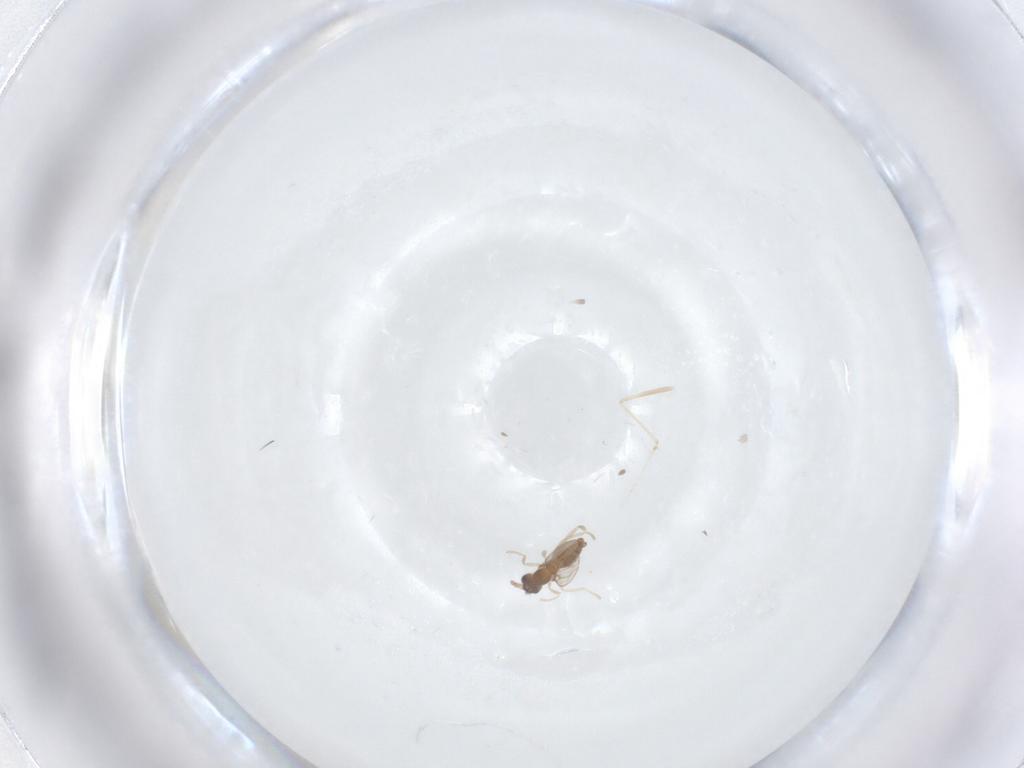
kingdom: Animalia
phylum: Arthropoda
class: Insecta
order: Diptera
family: Cecidomyiidae
